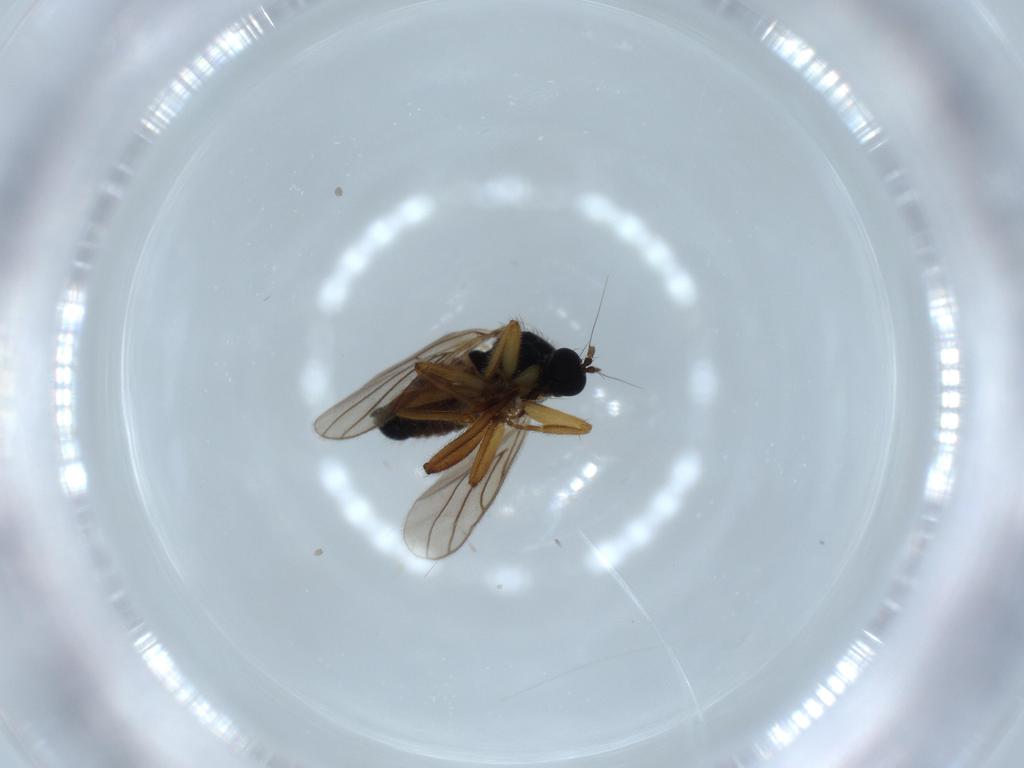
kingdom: Animalia
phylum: Arthropoda
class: Insecta
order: Diptera
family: Hybotidae
